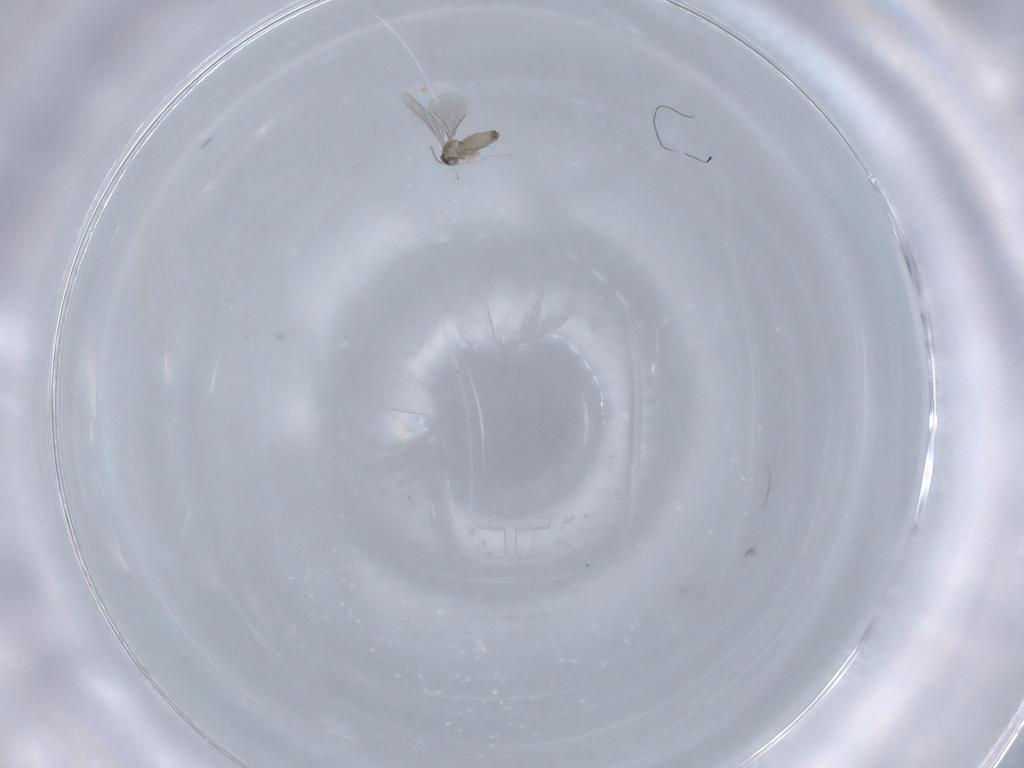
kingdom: Animalia
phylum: Arthropoda
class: Insecta
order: Diptera
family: Cecidomyiidae
